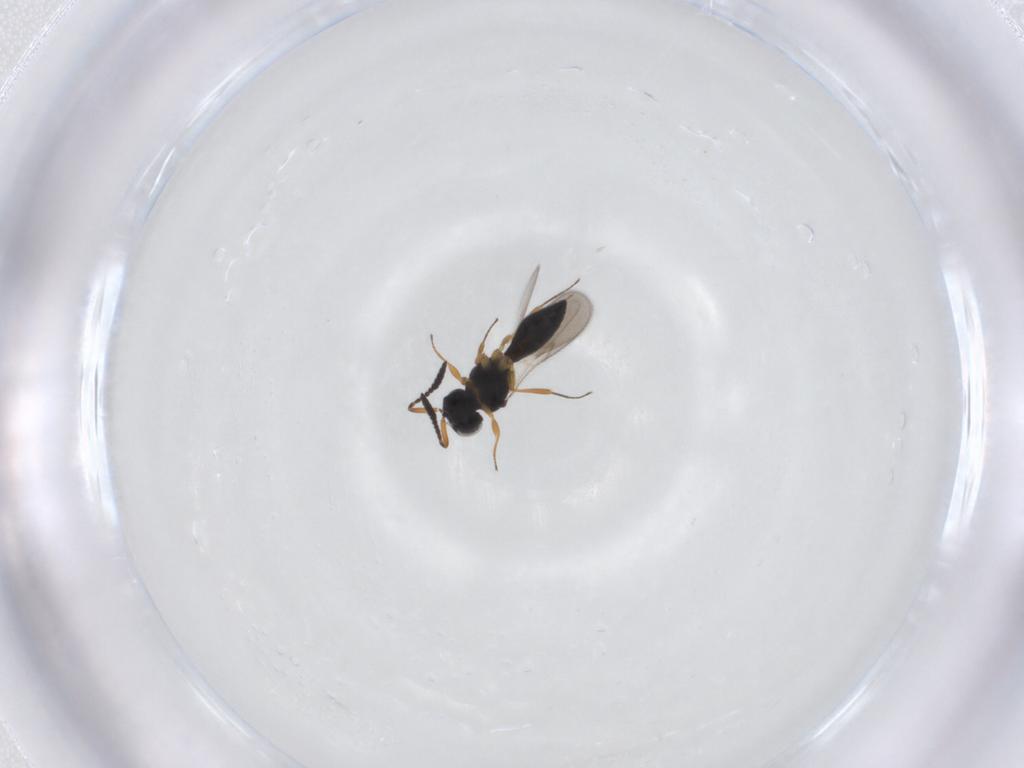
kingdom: Animalia
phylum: Arthropoda
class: Insecta
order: Hymenoptera
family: Scelionidae
